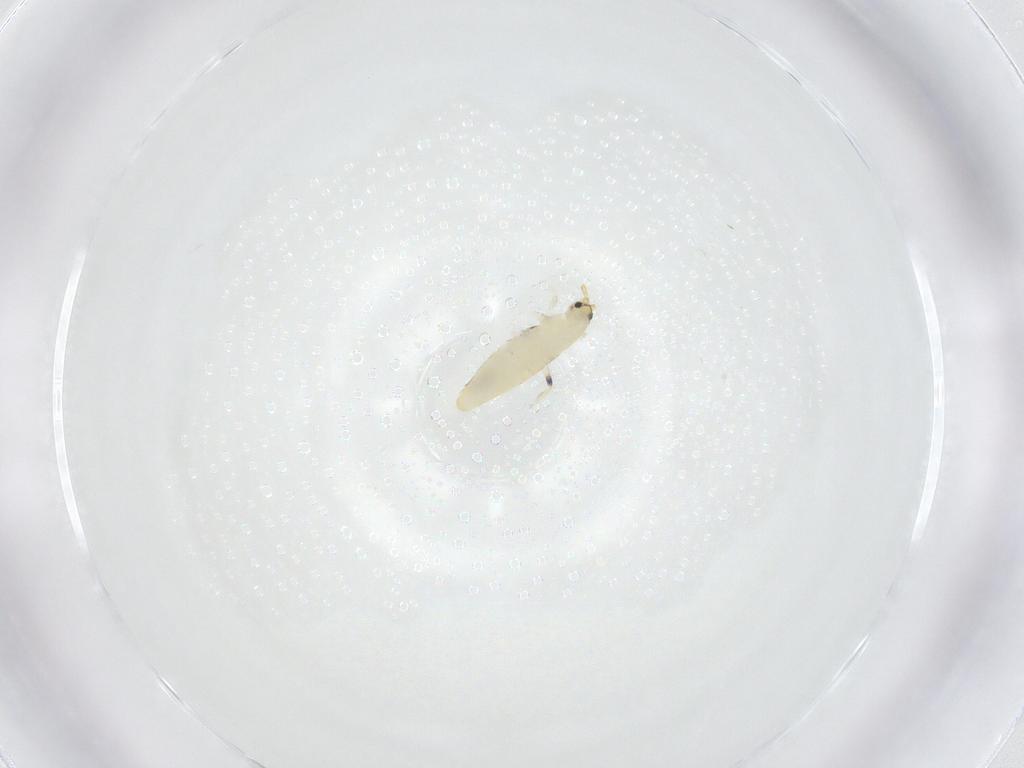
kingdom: Animalia
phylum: Arthropoda
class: Collembola
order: Entomobryomorpha
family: Entomobryidae
